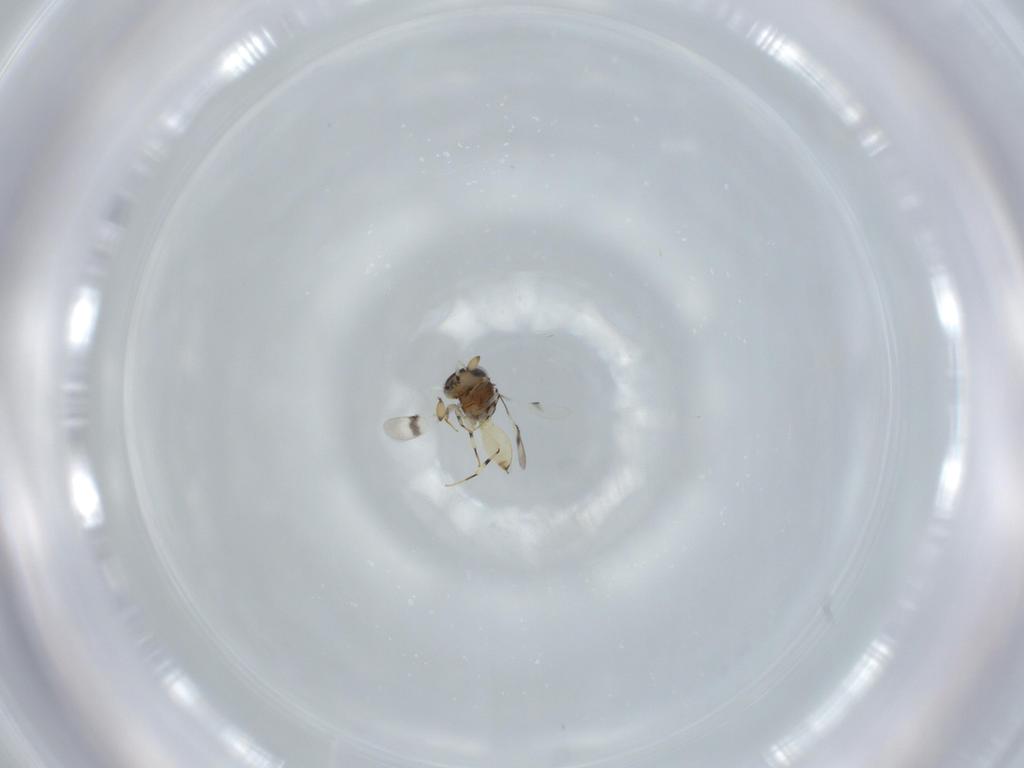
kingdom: Animalia
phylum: Arthropoda
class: Insecta
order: Hymenoptera
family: Scelionidae
